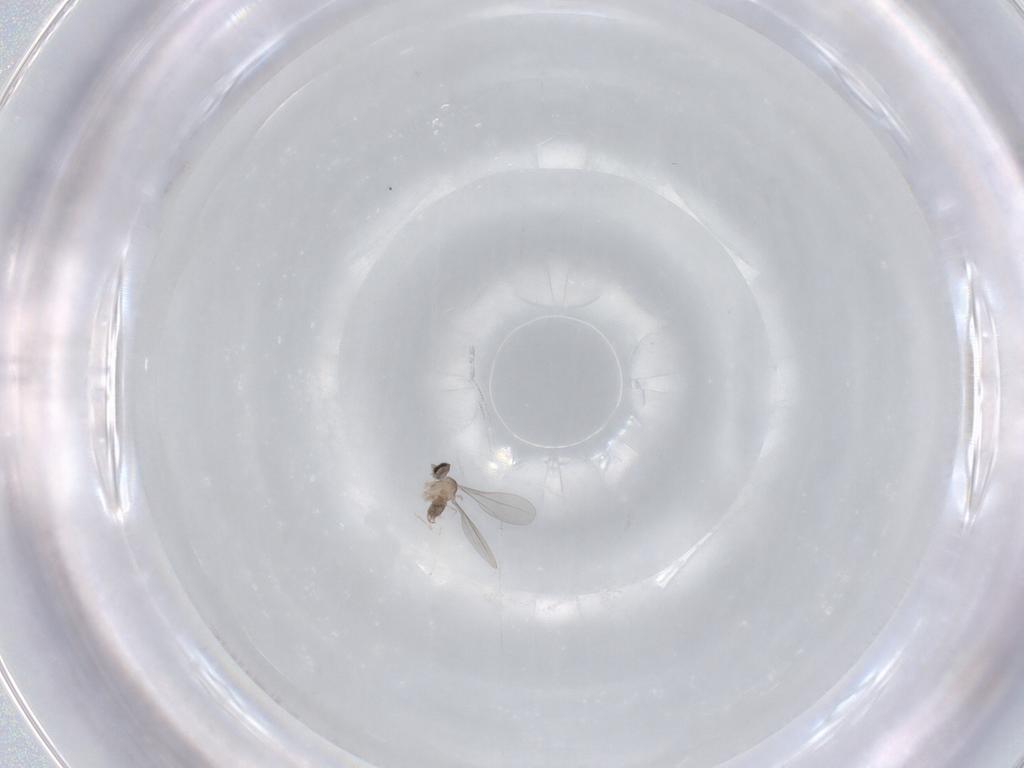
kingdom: Animalia
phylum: Arthropoda
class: Insecta
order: Diptera
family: Cecidomyiidae
